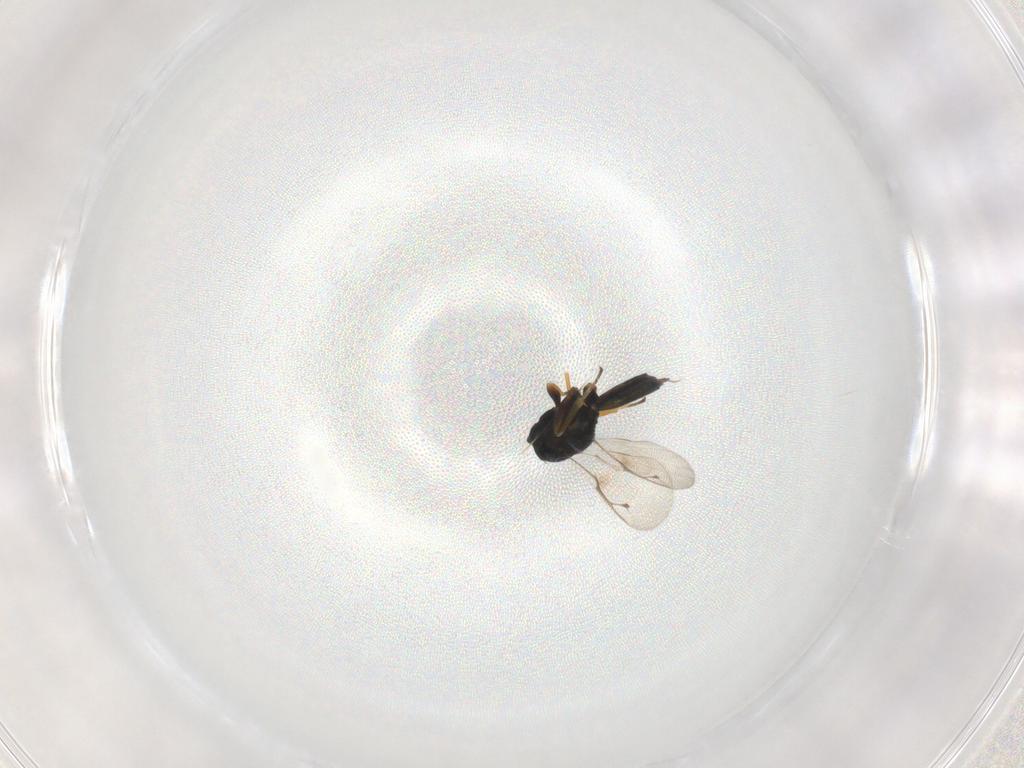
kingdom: Animalia
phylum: Arthropoda
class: Insecta
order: Hymenoptera
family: Pteromalidae
